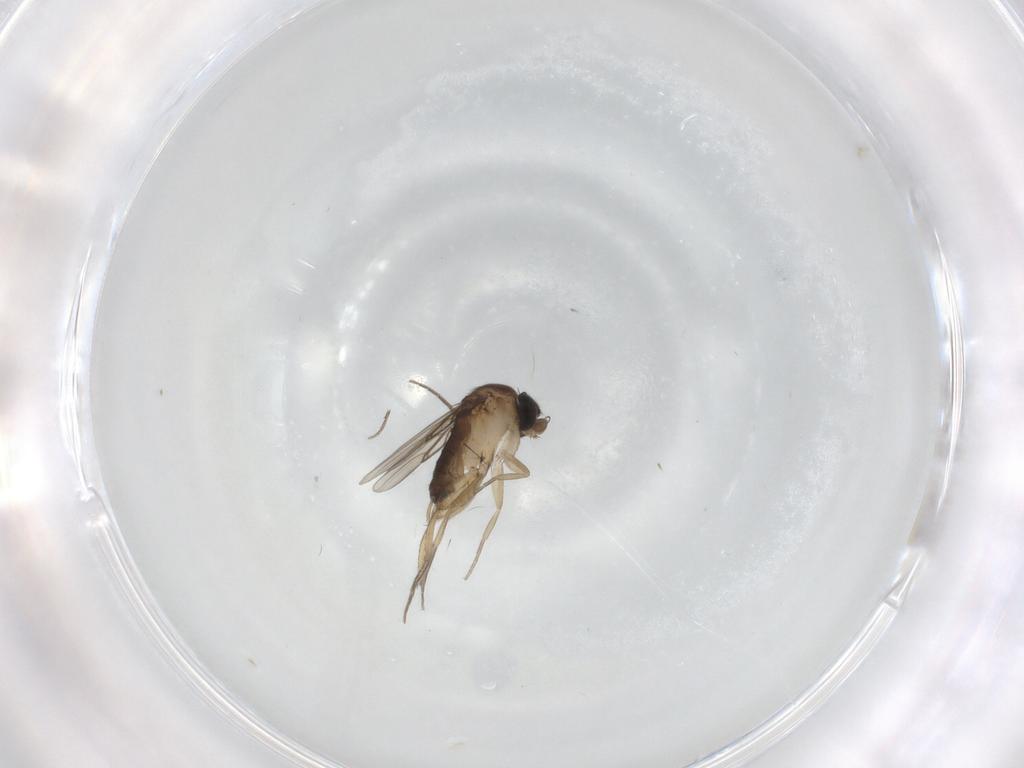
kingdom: Animalia
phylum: Arthropoda
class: Insecta
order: Diptera
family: Phoridae
